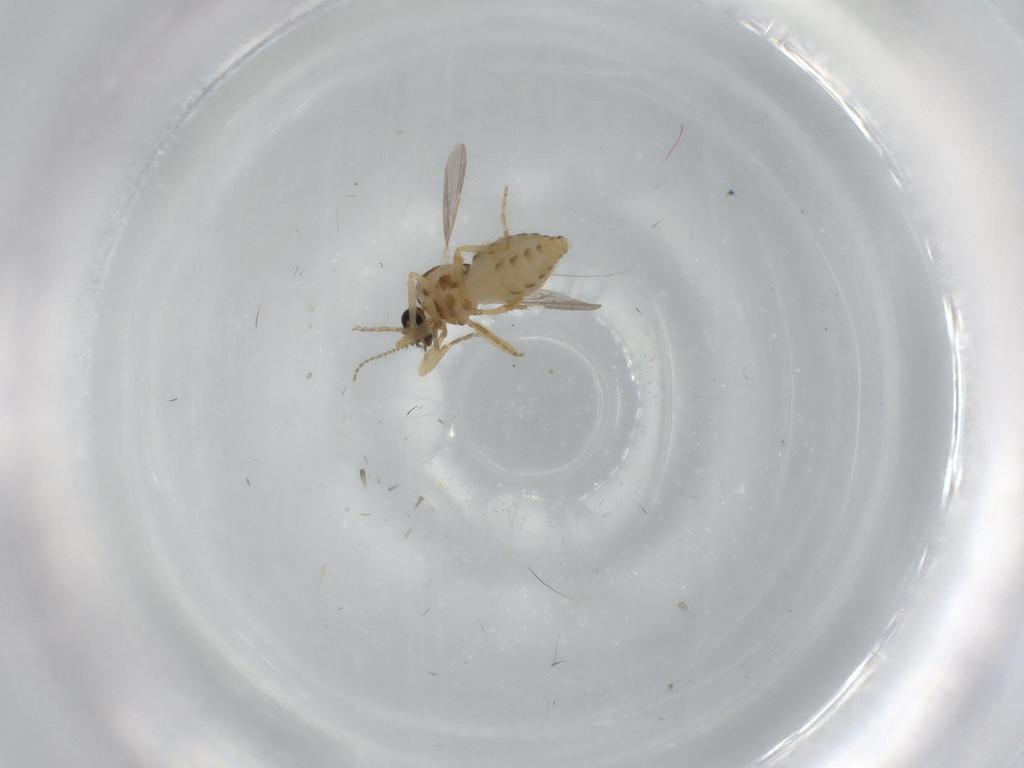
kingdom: Animalia
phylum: Arthropoda
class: Insecta
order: Diptera
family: Ceratopogonidae
